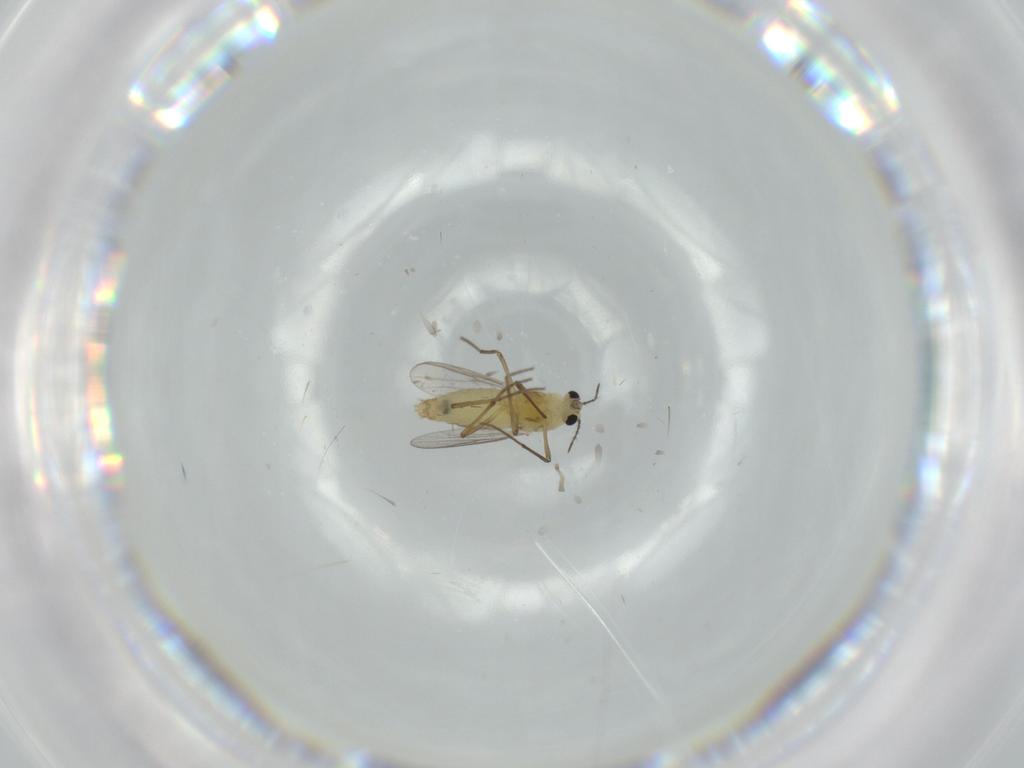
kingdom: Animalia
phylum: Arthropoda
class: Insecta
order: Diptera
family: Chironomidae
